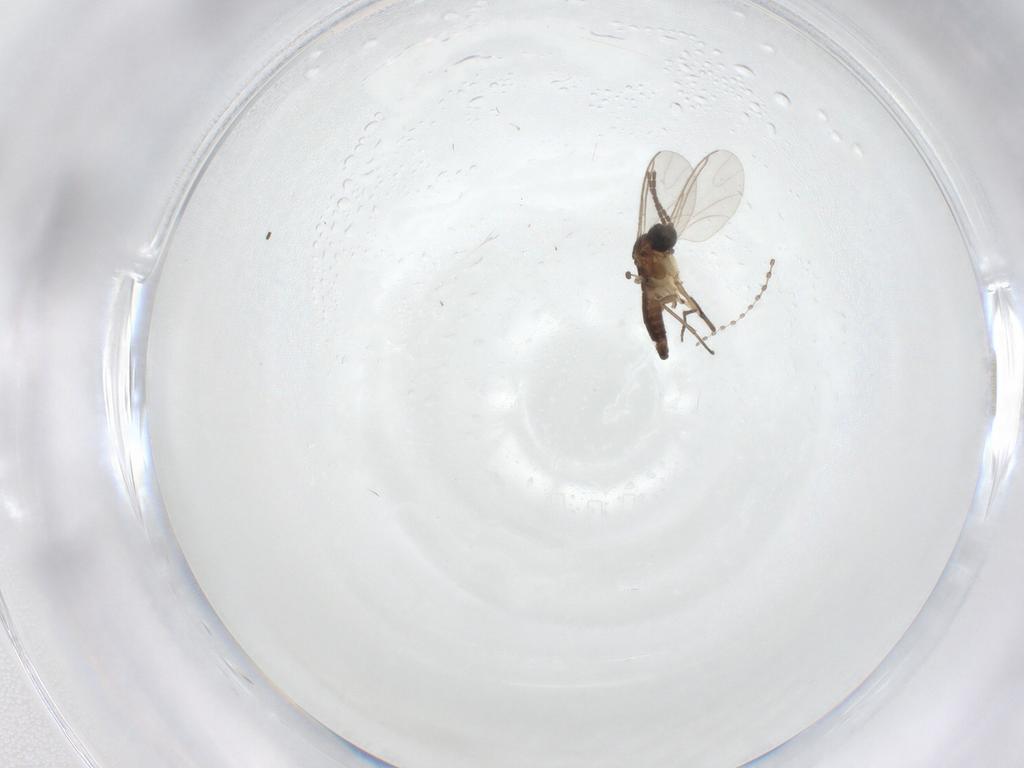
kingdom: Animalia
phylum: Arthropoda
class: Insecta
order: Diptera
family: Sciaridae
